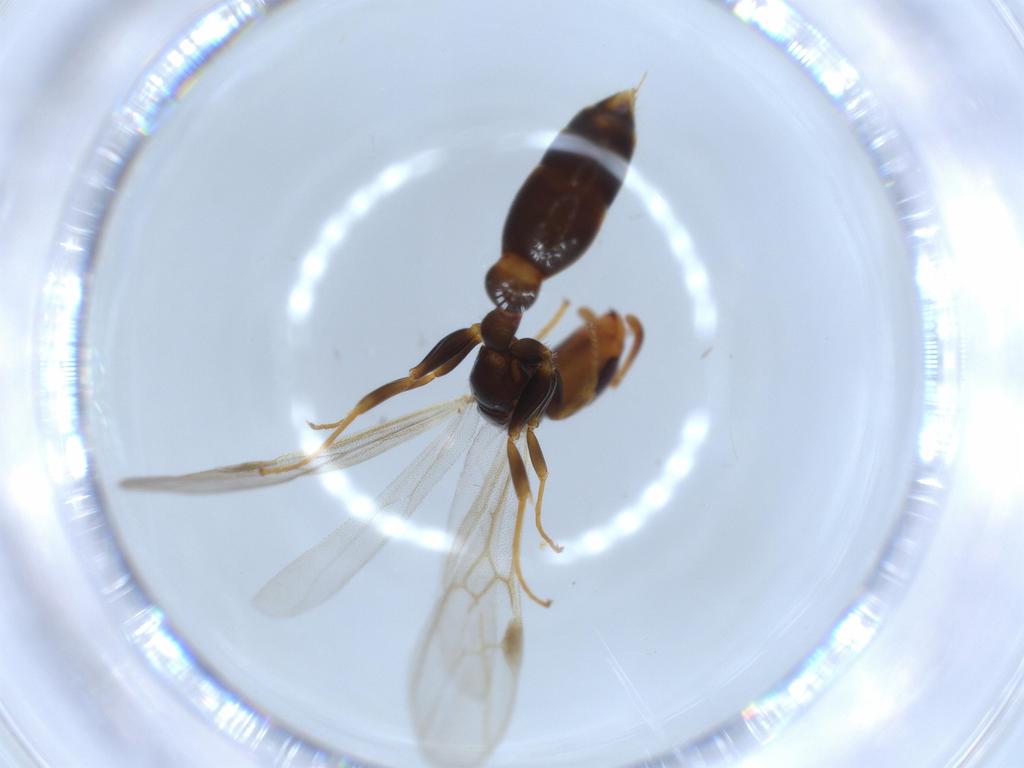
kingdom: Animalia
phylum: Arthropoda
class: Insecta
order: Hymenoptera
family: Formicidae
